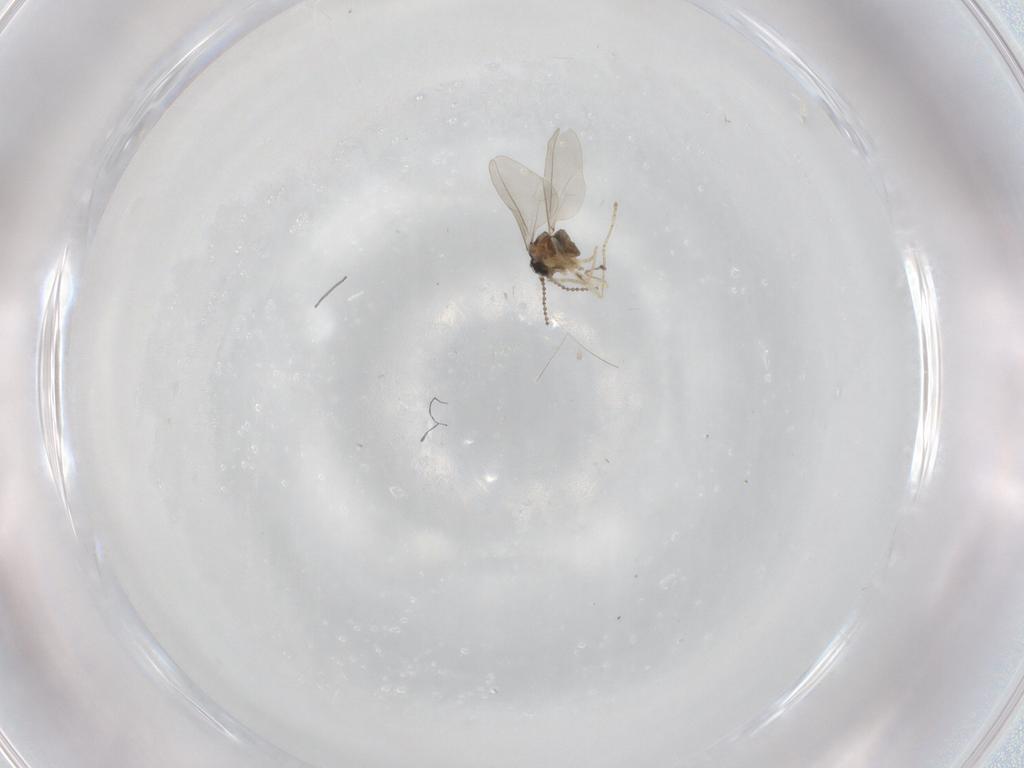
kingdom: Animalia
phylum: Arthropoda
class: Insecta
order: Diptera
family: Cecidomyiidae
